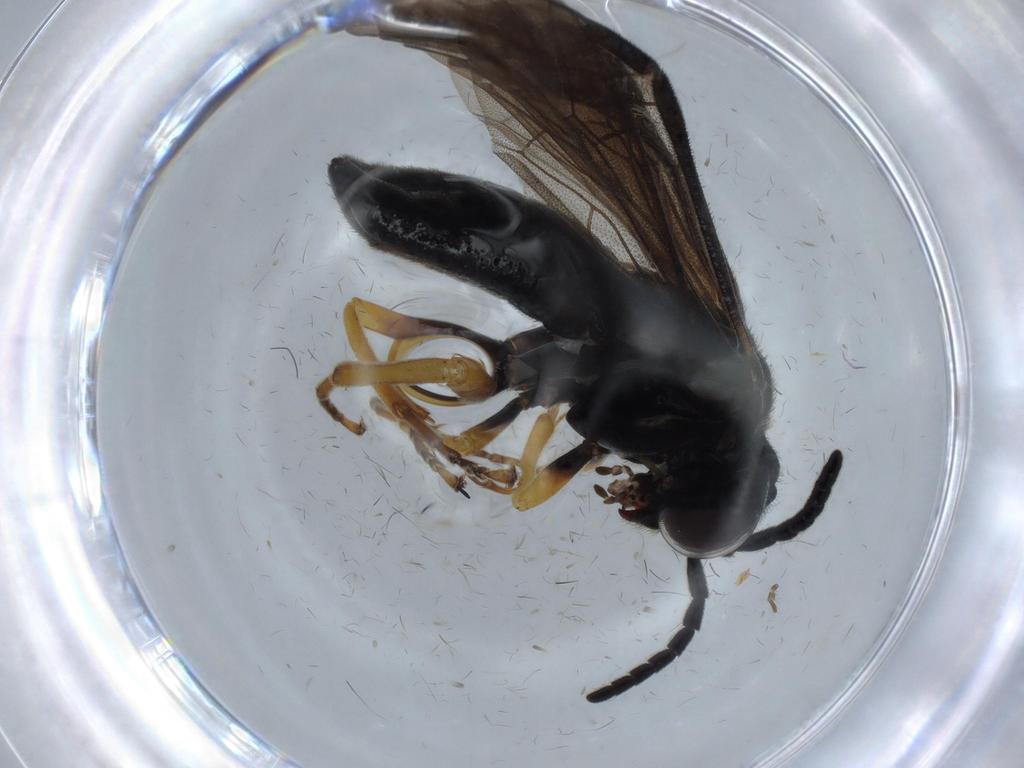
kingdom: Animalia
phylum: Arthropoda
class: Insecta
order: Hymenoptera
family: Tenthredinidae
